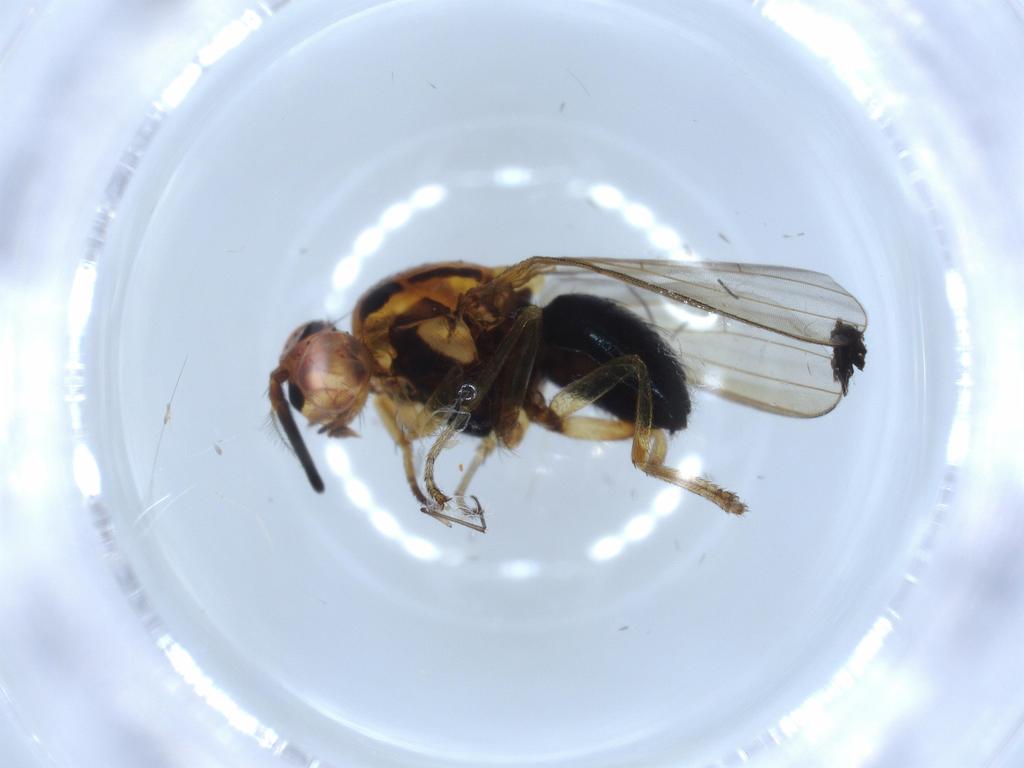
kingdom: Animalia
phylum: Arthropoda
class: Insecta
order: Diptera
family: Lauxaniidae
